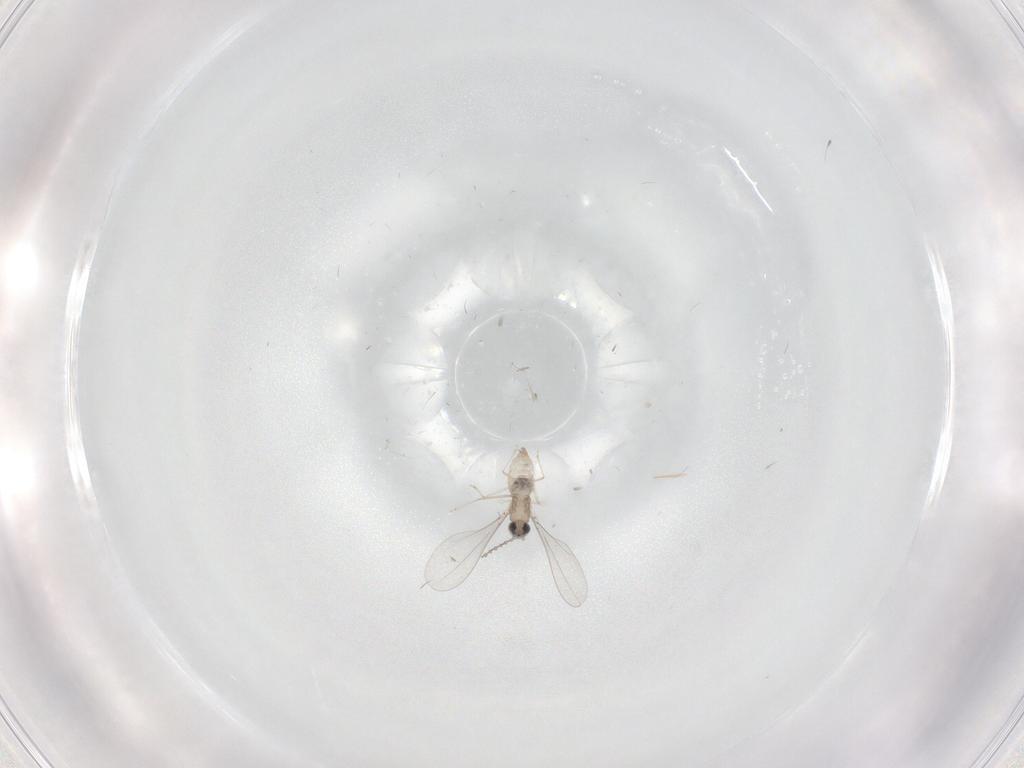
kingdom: Animalia
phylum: Arthropoda
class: Insecta
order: Diptera
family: Cecidomyiidae
